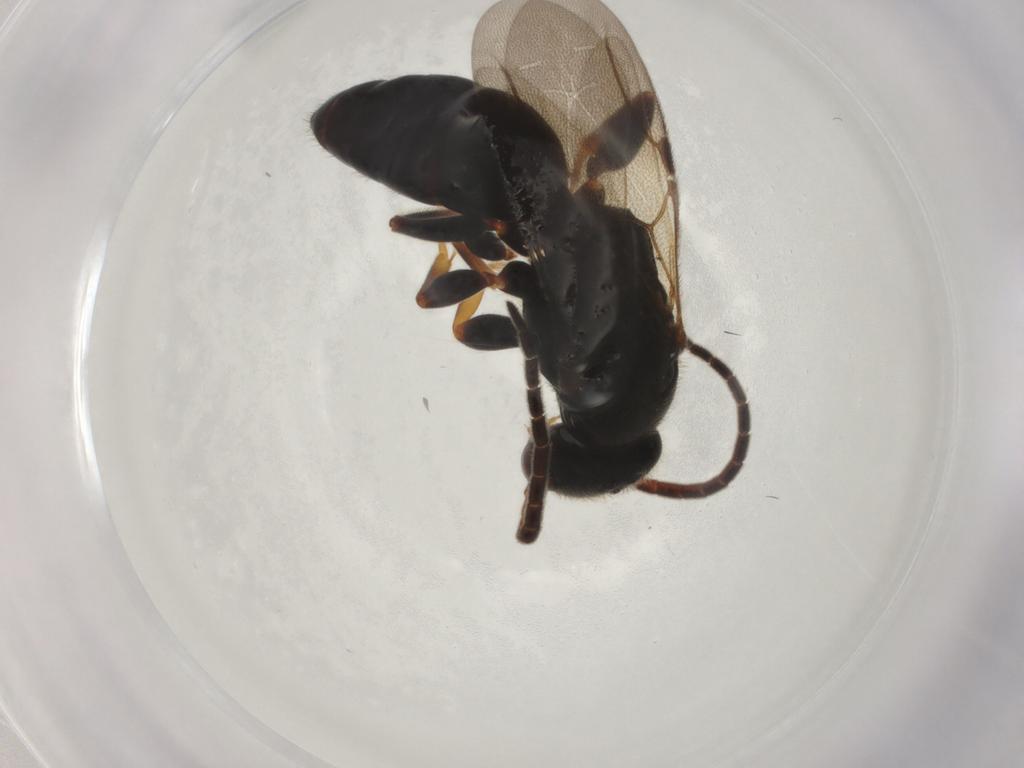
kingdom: Animalia
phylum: Arthropoda
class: Insecta
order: Hymenoptera
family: Bethylidae
